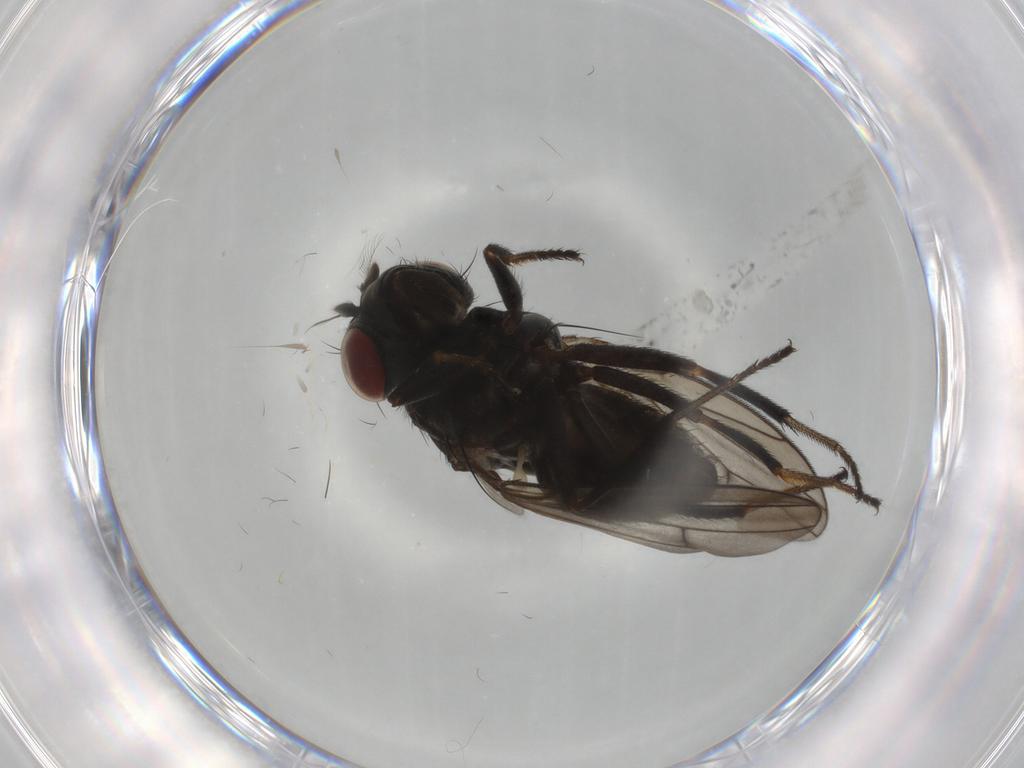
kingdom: Animalia
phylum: Arthropoda
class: Insecta
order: Diptera
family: Ephydridae
